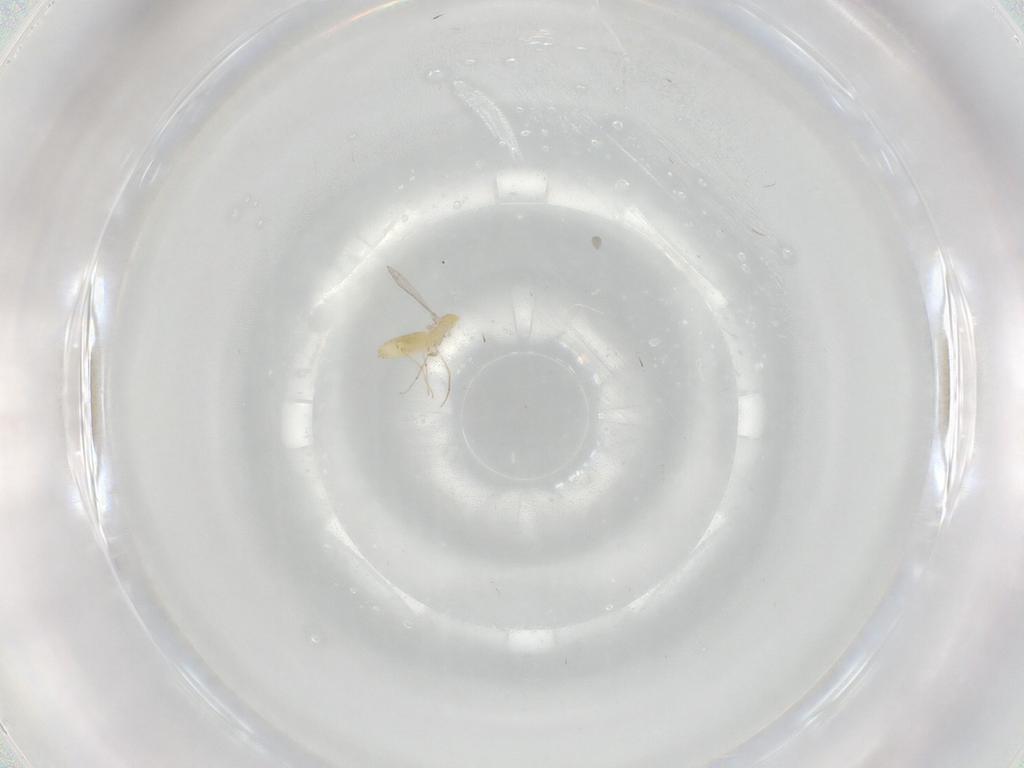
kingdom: Animalia
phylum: Arthropoda
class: Insecta
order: Diptera
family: Chironomidae
